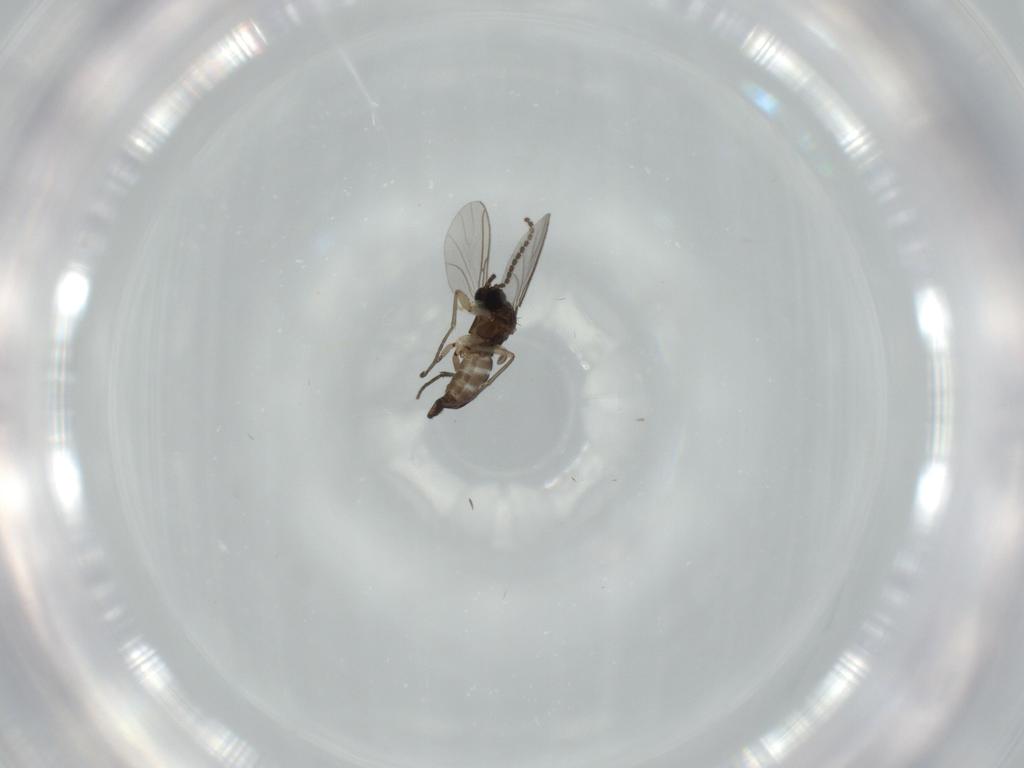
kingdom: Animalia
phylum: Arthropoda
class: Insecta
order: Diptera
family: Sciaridae
